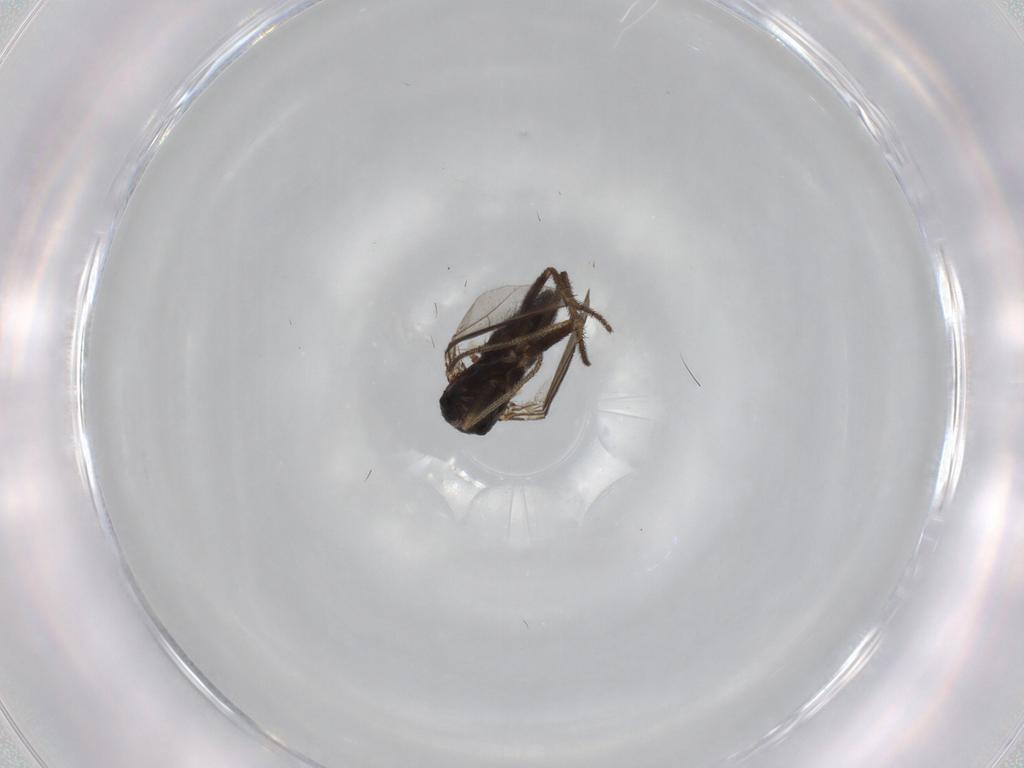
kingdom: Animalia
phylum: Arthropoda
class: Insecta
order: Diptera
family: Dolichopodidae
